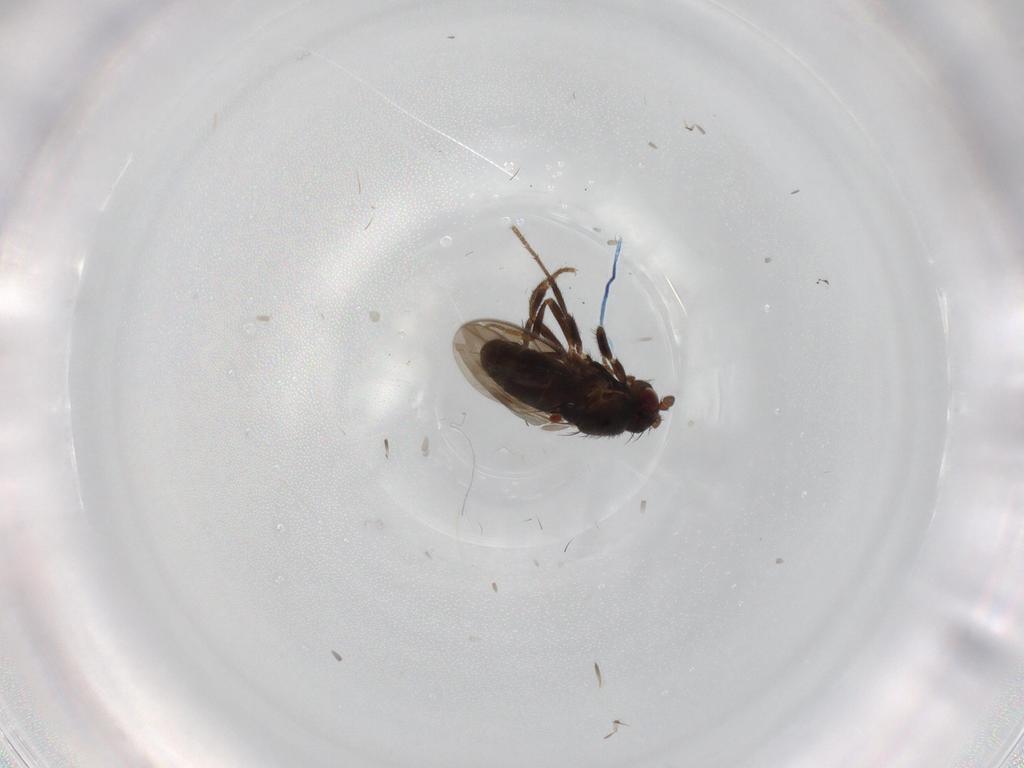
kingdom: Animalia
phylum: Arthropoda
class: Insecta
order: Diptera
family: Sphaeroceridae
